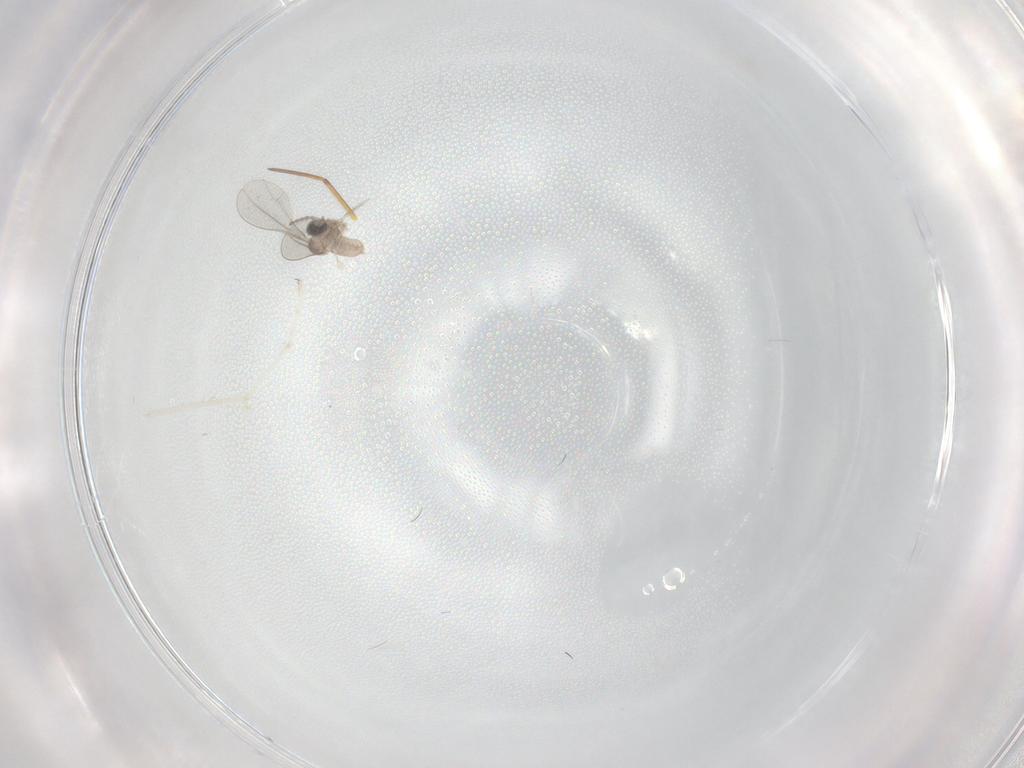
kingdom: Animalia
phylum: Arthropoda
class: Insecta
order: Diptera
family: Cecidomyiidae
